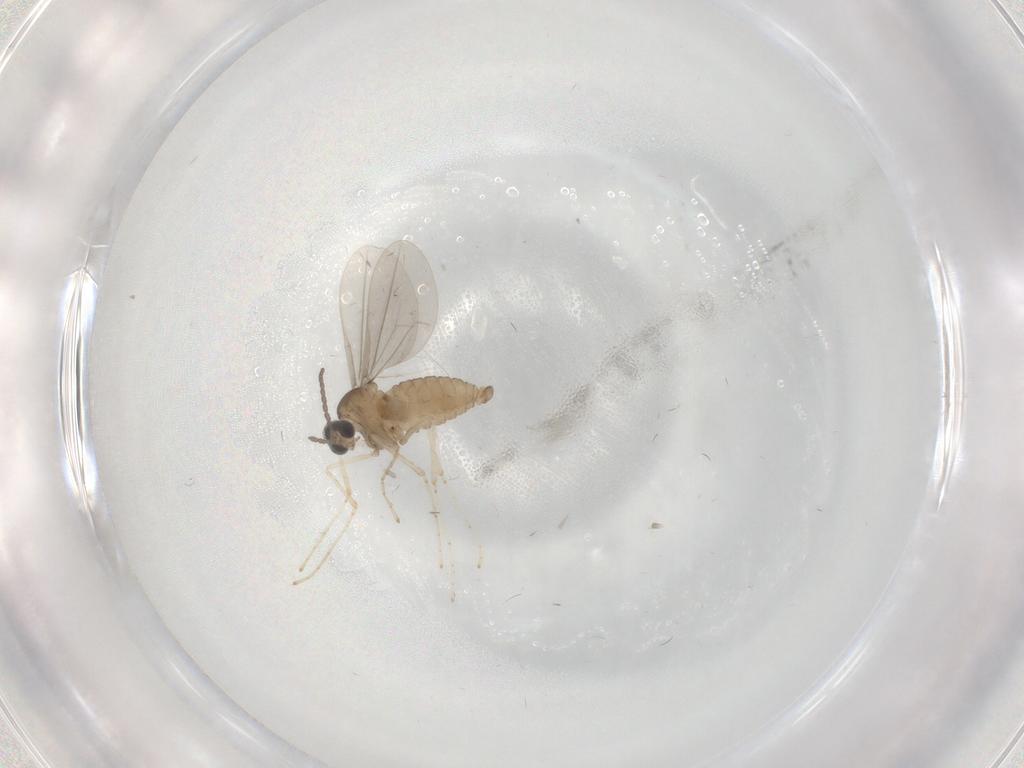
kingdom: Animalia
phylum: Arthropoda
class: Insecta
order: Diptera
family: Cecidomyiidae
